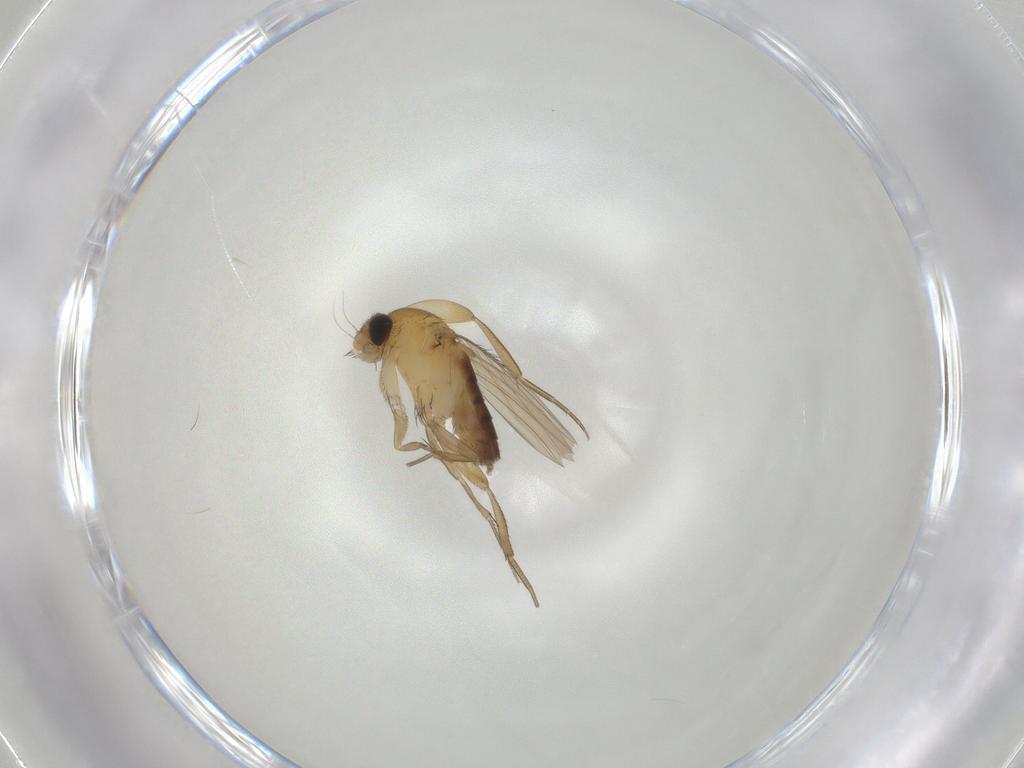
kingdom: Animalia
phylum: Arthropoda
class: Insecta
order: Diptera
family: Phoridae
